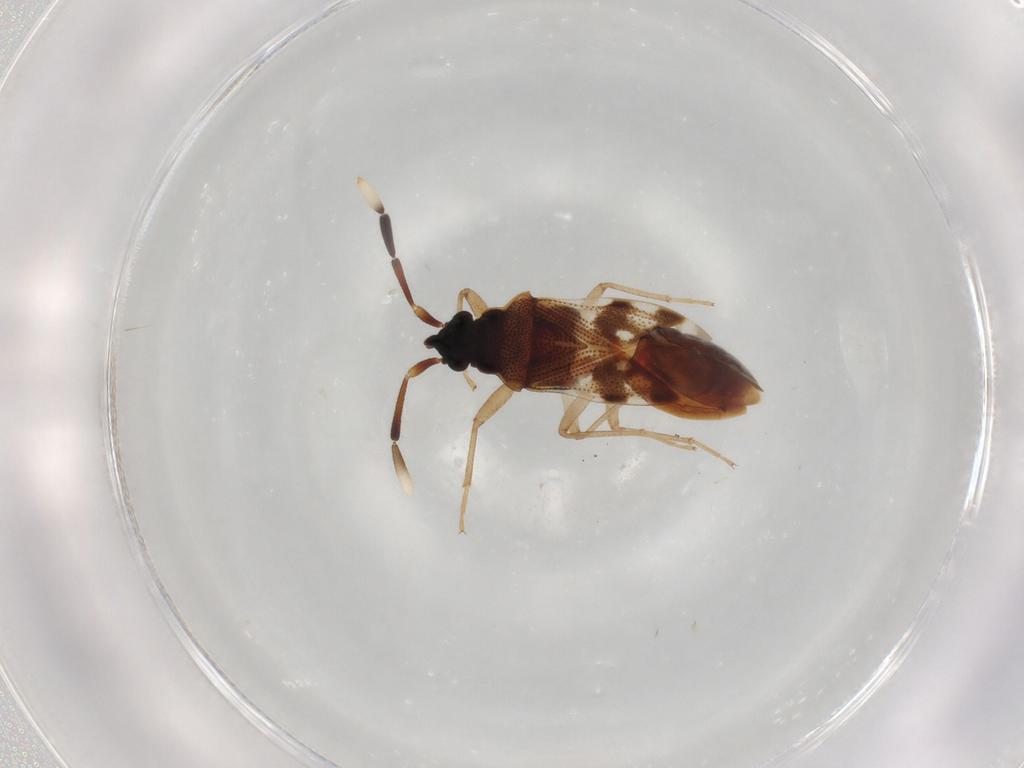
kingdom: Animalia
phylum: Arthropoda
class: Insecta
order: Hemiptera
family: Lygaeidae
